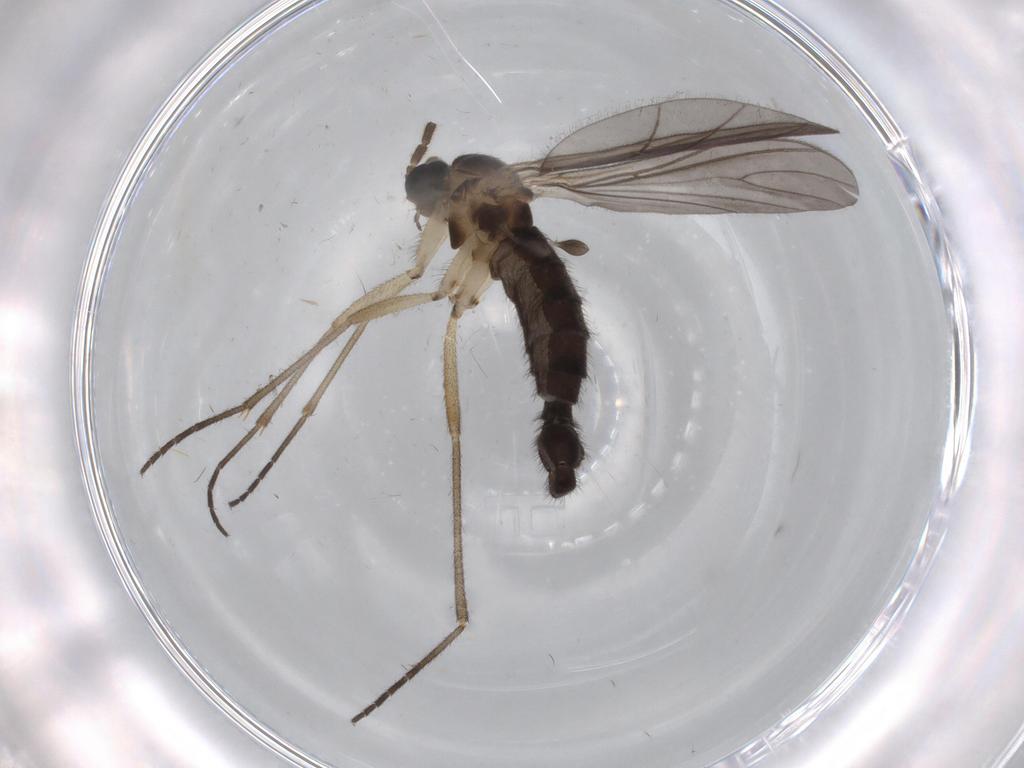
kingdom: Animalia
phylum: Arthropoda
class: Insecta
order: Diptera
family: Sciaridae
